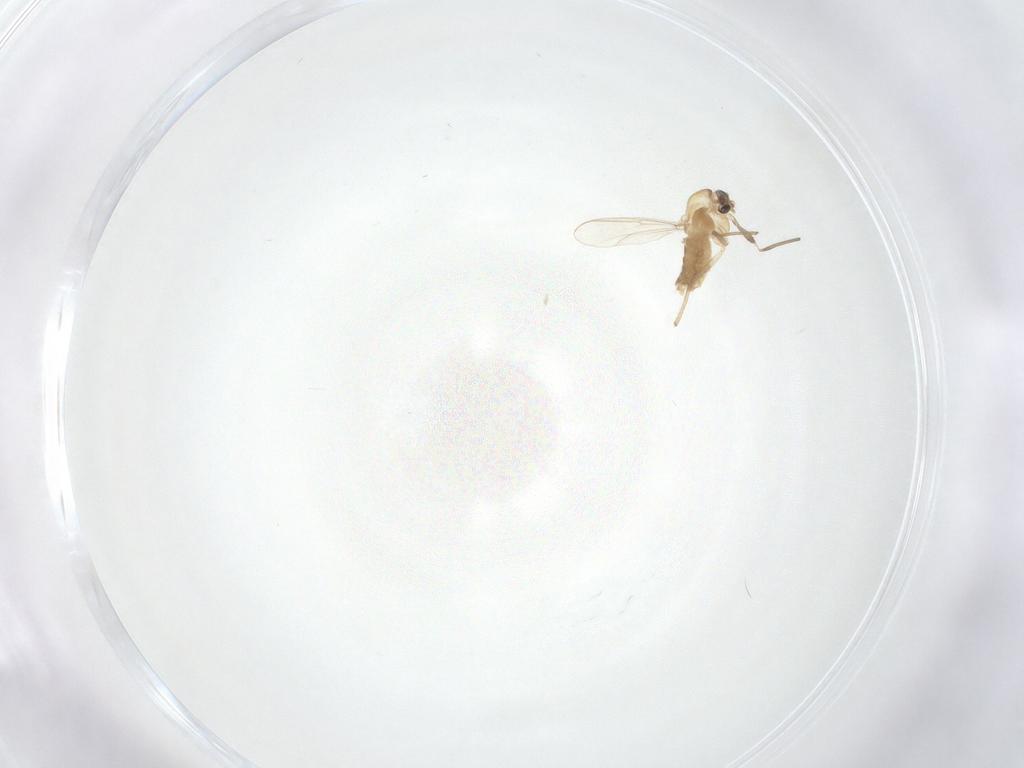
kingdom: Animalia
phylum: Arthropoda
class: Insecta
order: Diptera
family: Chironomidae
